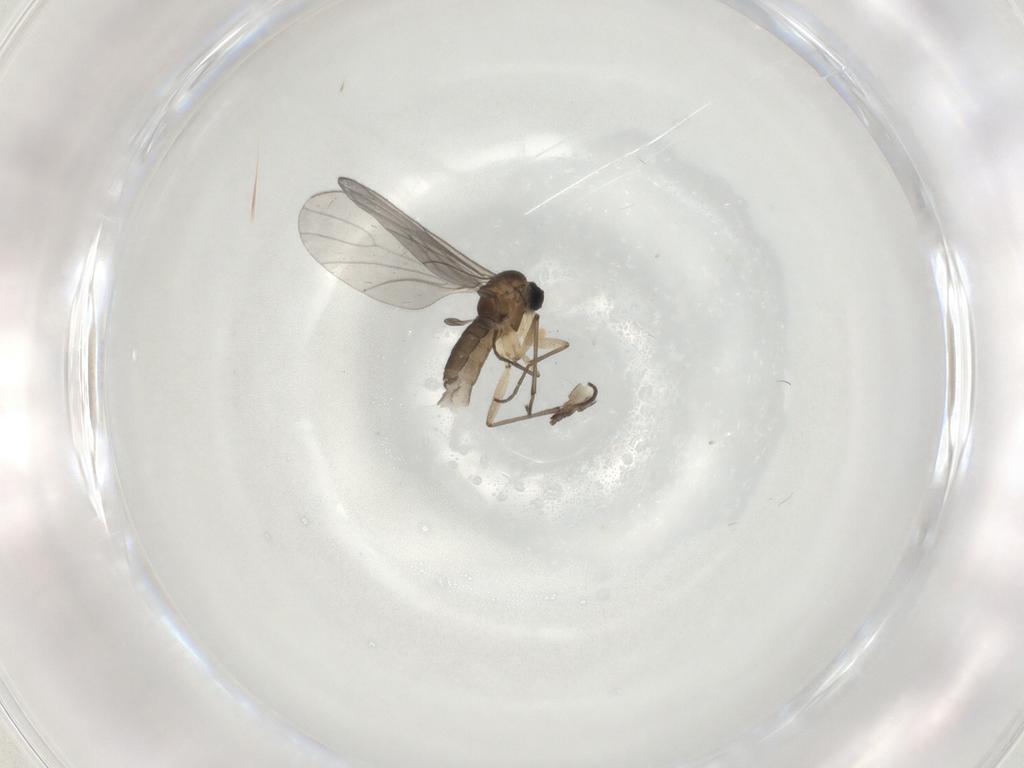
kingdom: Animalia
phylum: Arthropoda
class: Insecta
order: Diptera
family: Sciaridae
